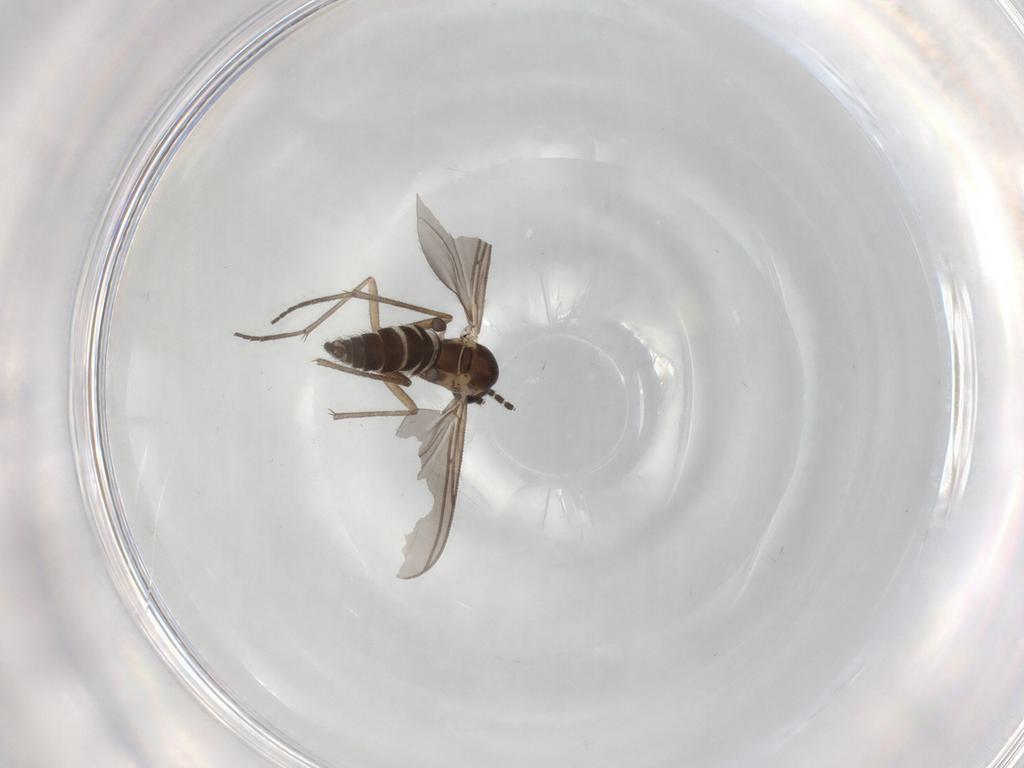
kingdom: Animalia
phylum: Arthropoda
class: Insecta
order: Diptera
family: Sciaridae
